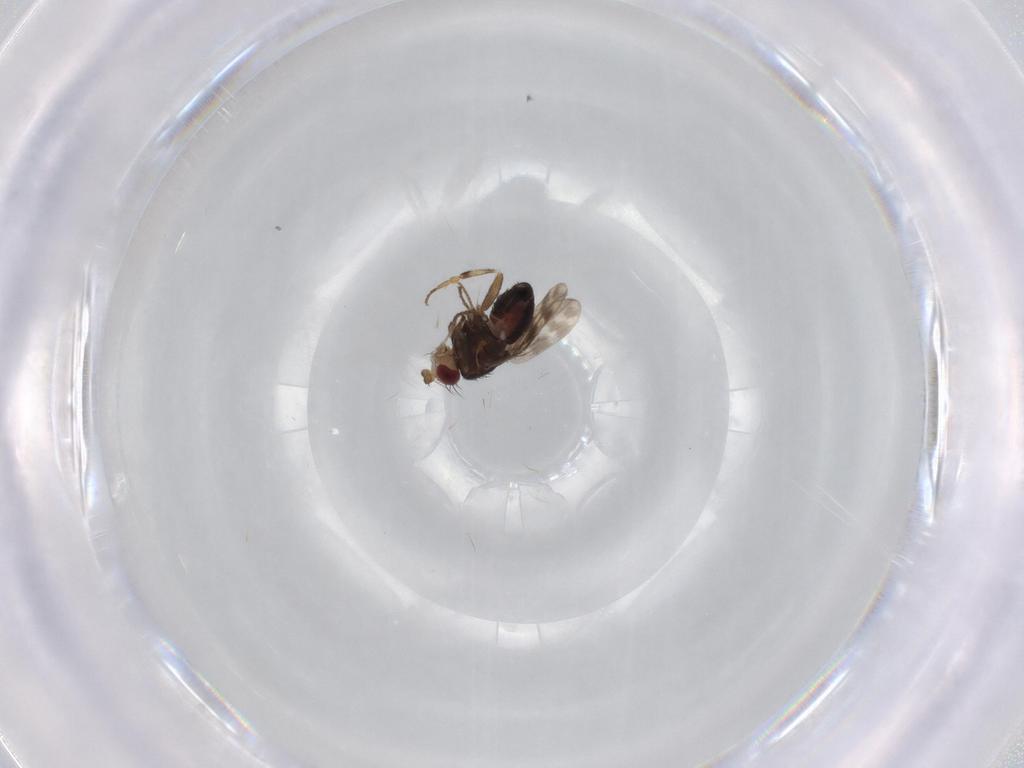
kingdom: Animalia
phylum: Arthropoda
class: Insecta
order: Diptera
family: Sphaeroceridae
